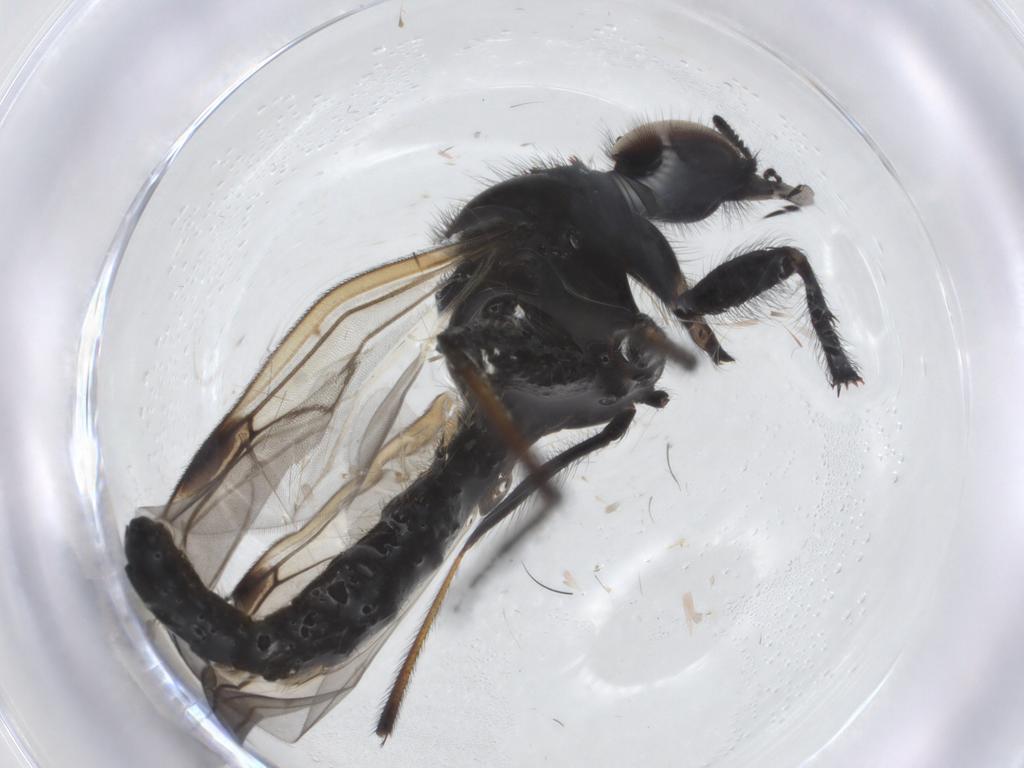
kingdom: Animalia
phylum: Arthropoda
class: Insecta
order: Diptera
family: Bibionidae
